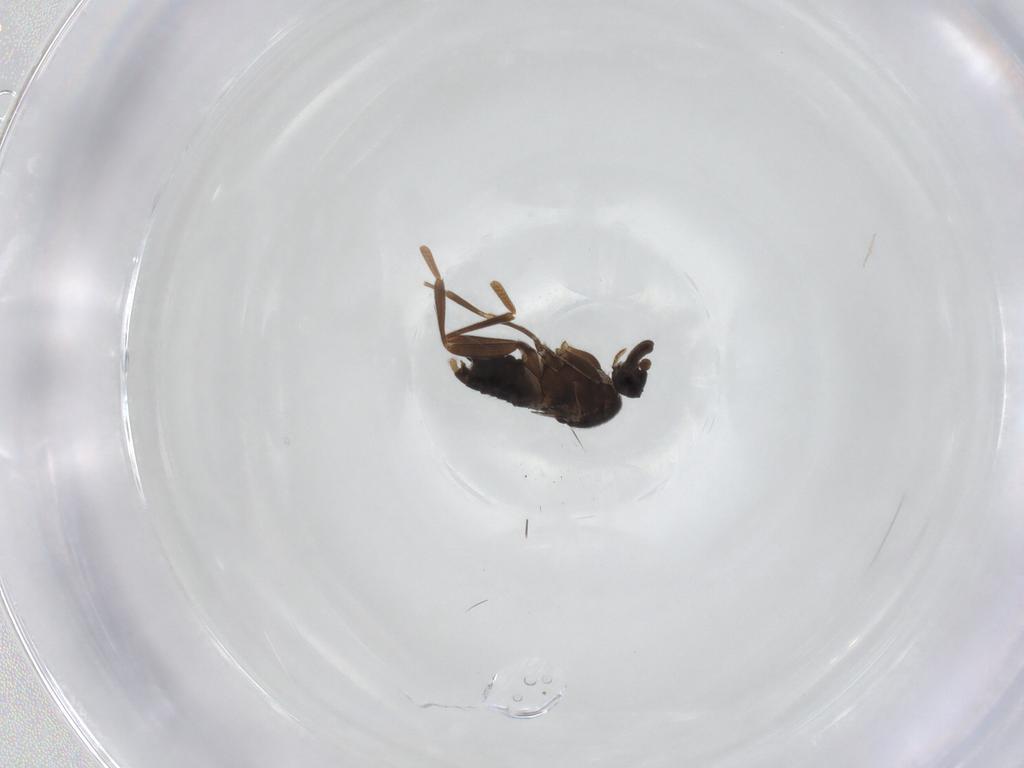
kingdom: Animalia
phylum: Arthropoda
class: Insecta
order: Diptera
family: Phoridae
